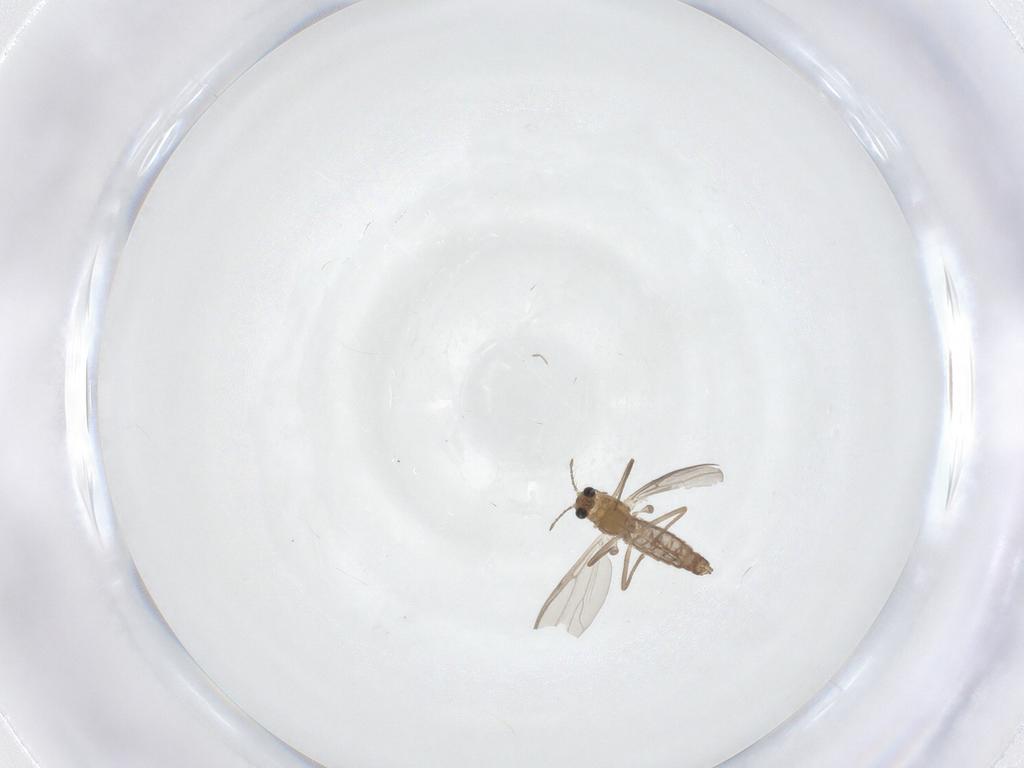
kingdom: Animalia
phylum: Arthropoda
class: Insecta
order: Diptera
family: Chironomidae
